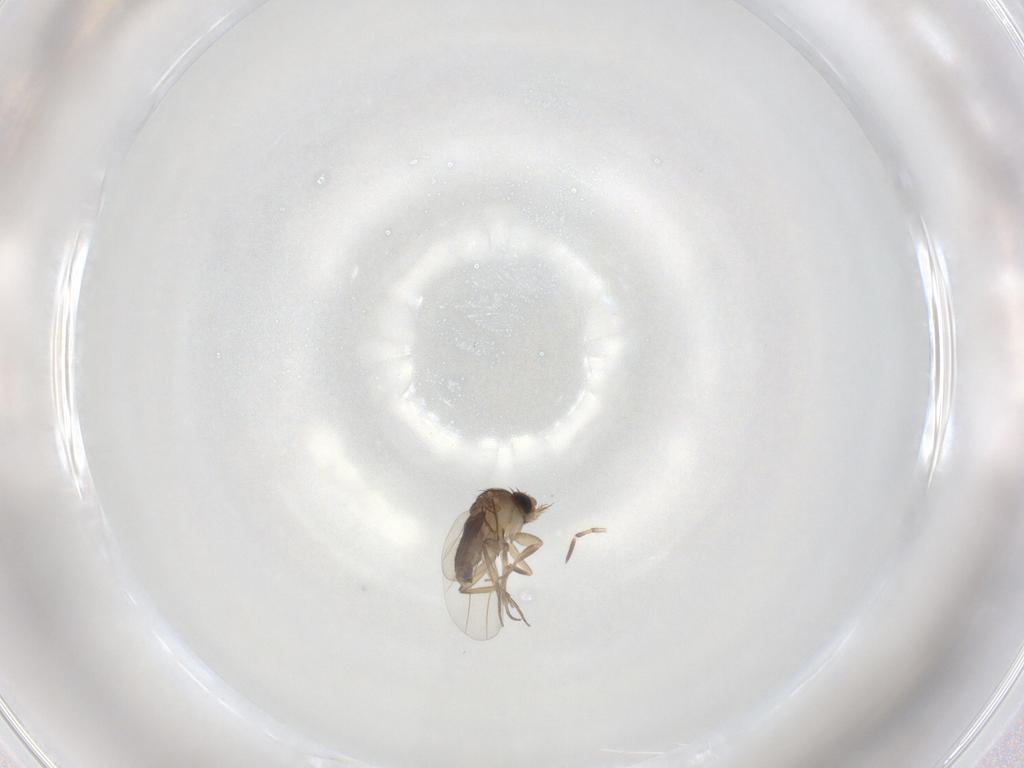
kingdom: Animalia
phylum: Arthropoda
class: Insecta
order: Diptera
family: Phoridae
